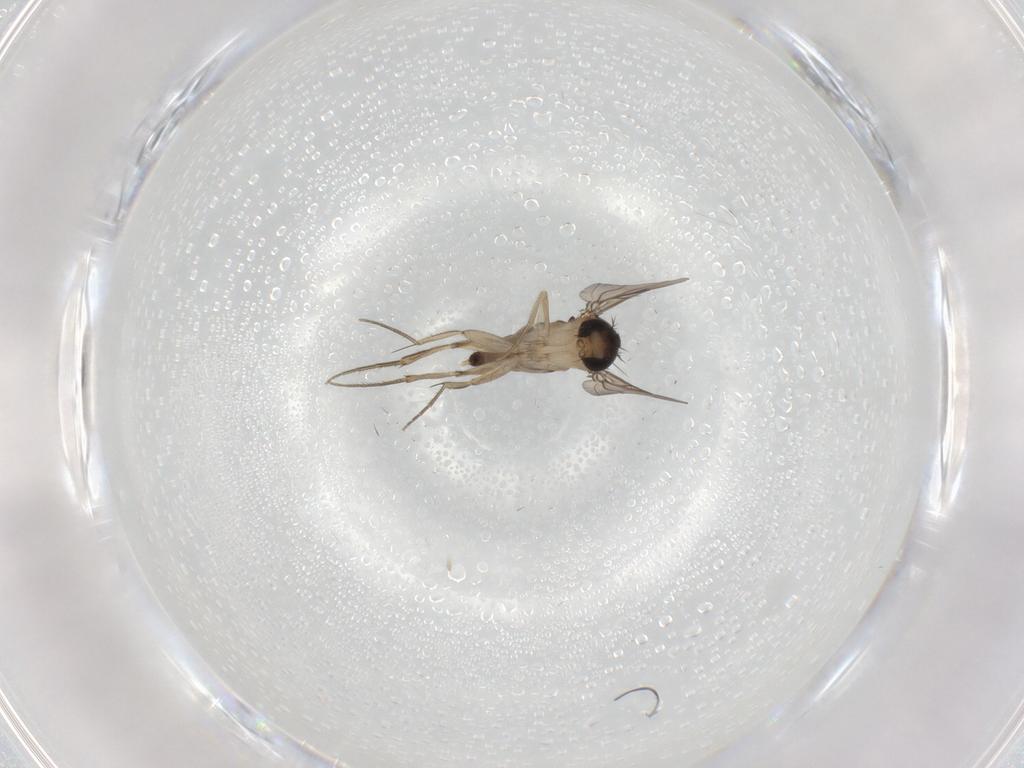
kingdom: Animalia
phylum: Arthropoda
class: Insecta
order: Diptera
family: Phoridae
